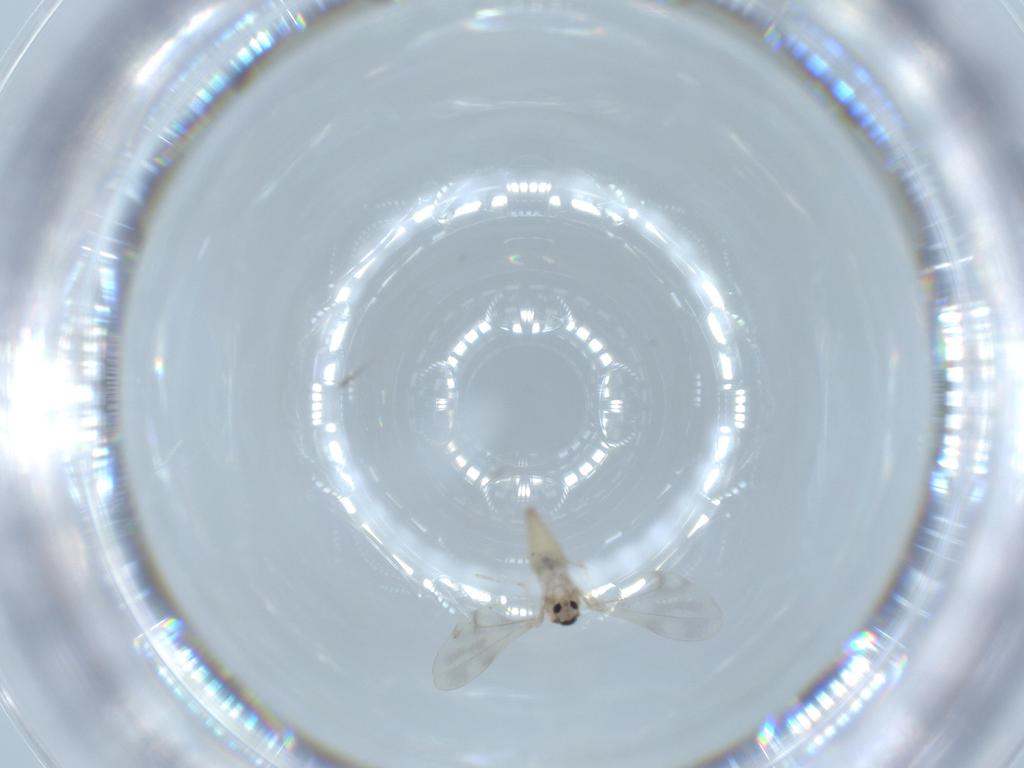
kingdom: Animalia
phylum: Arthropoda
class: Insecta
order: Diptera
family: Cecidomyiidae
